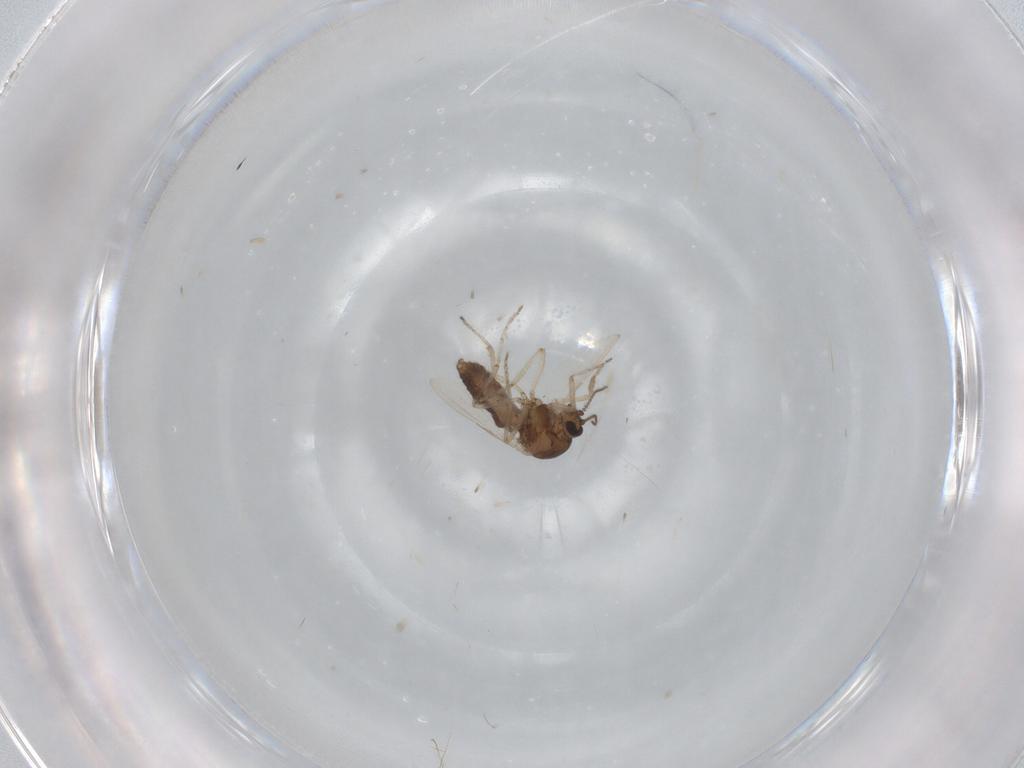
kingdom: Animalia
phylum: Arthropoda
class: Insecta
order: Diptera
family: Ceratopogonidae
